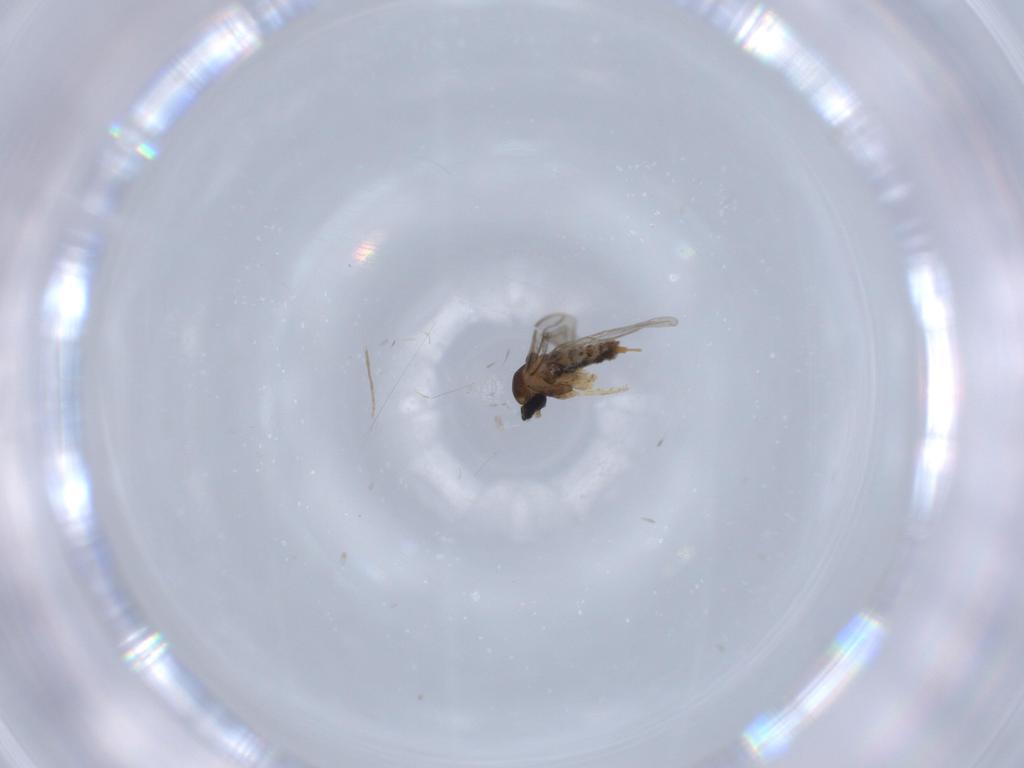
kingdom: Animalia
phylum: Arthropoda
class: Insecta
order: Diptera
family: Cecidomyiidae
